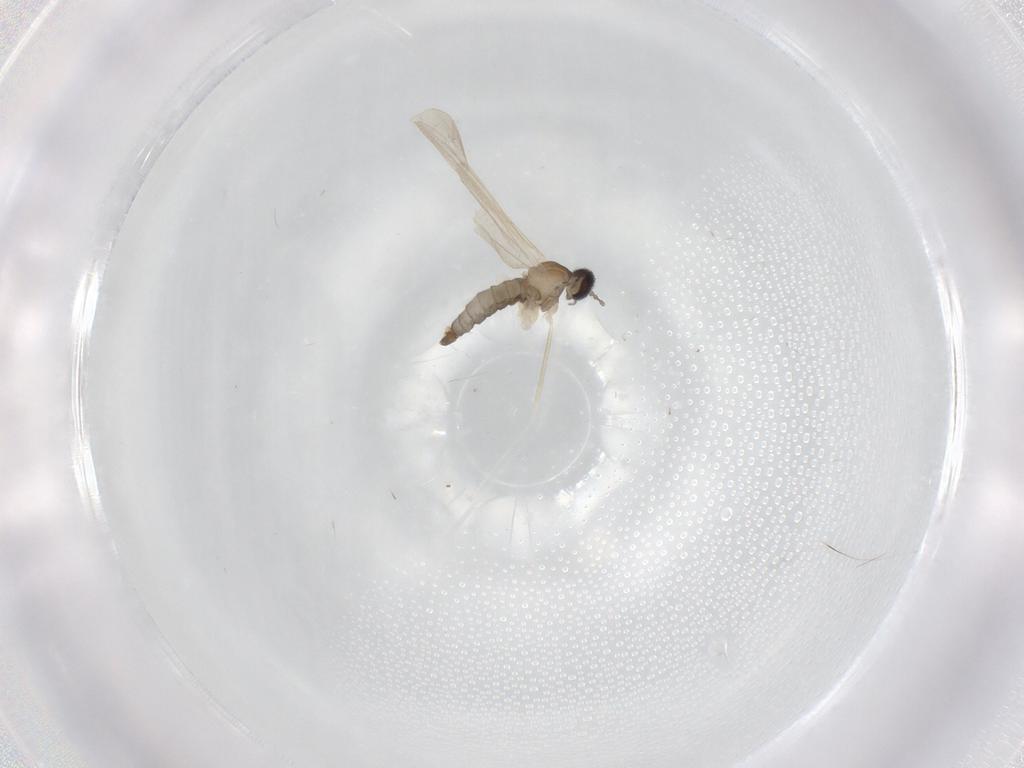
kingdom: Animalia
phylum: Arthropoda
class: Insecta
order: Diptera
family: Cecidomyiidae
